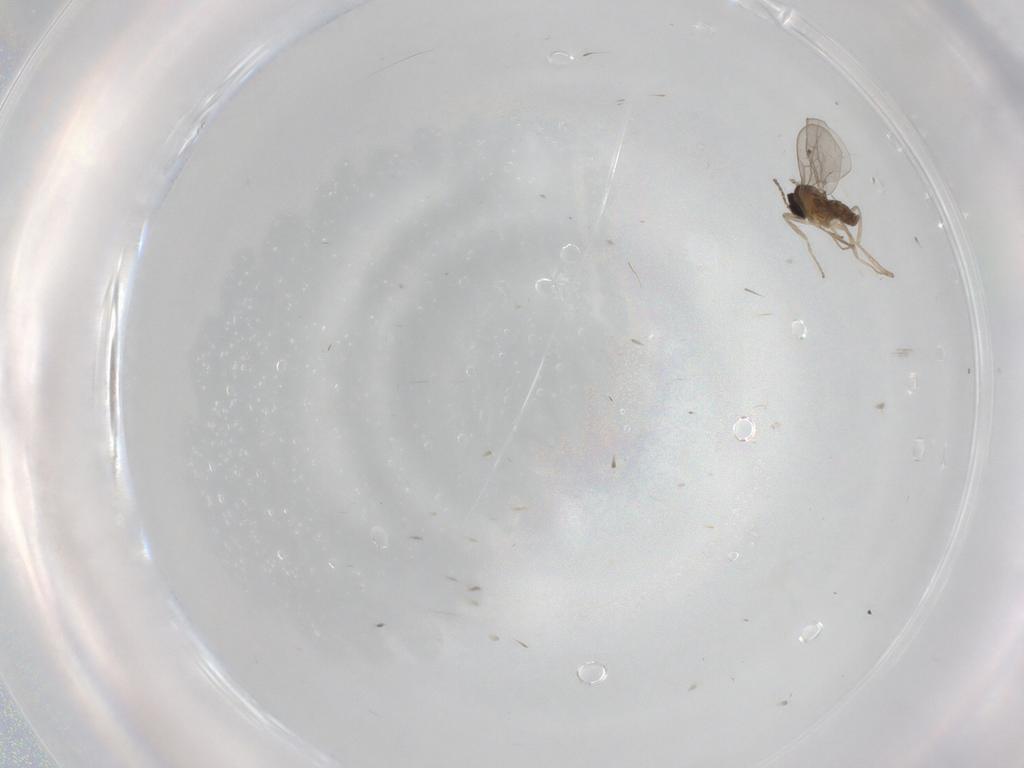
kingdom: Animalia
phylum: Arthropoda
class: Insecta
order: Diptera
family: Cecidomyiidae
